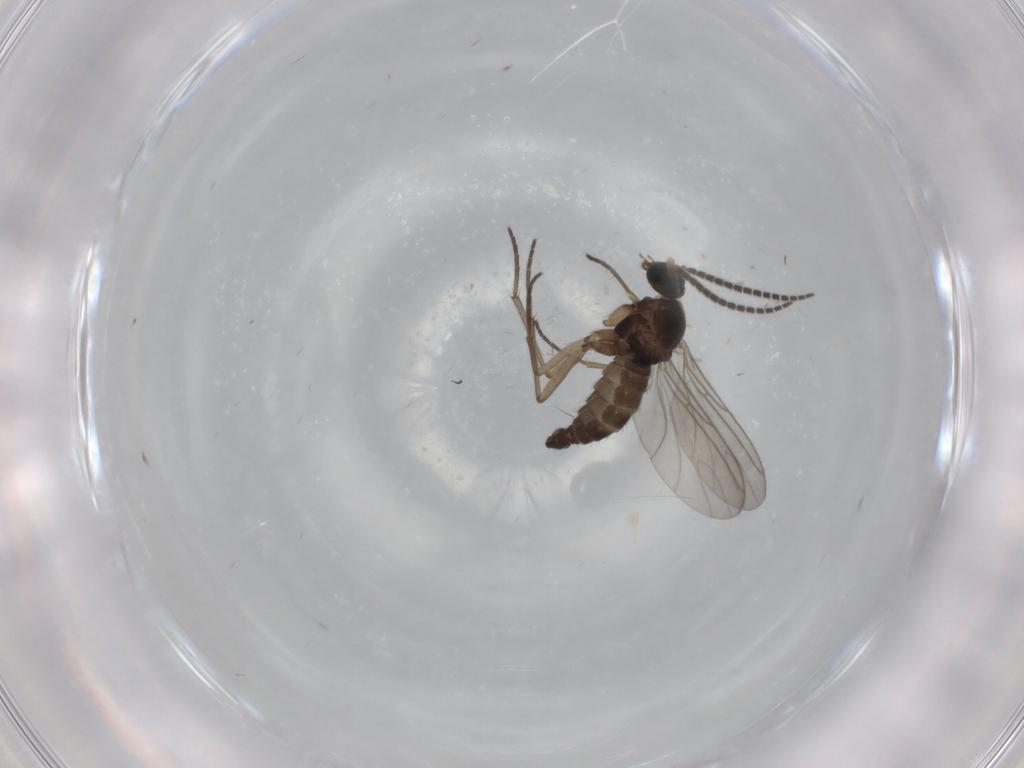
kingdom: Animalia
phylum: Arthropoda
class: Insecta
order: Diptera
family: Sciaridae
